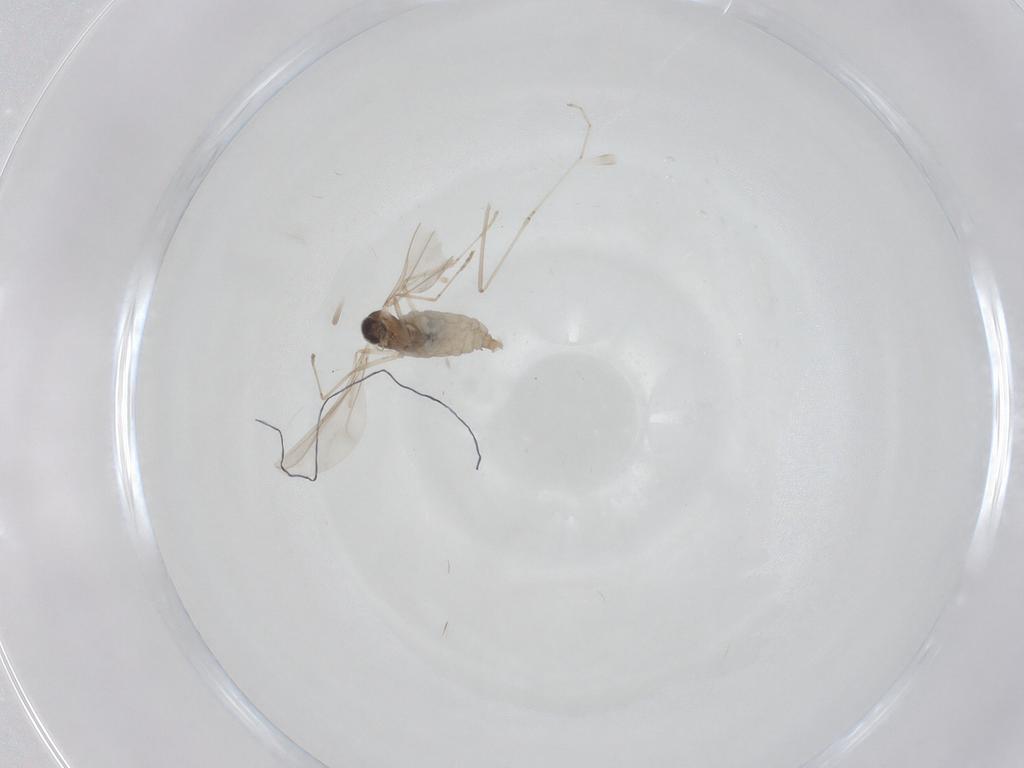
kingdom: Animalia
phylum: Arthropoda
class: Insecta
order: Diptera
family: Cecidomyiidae
